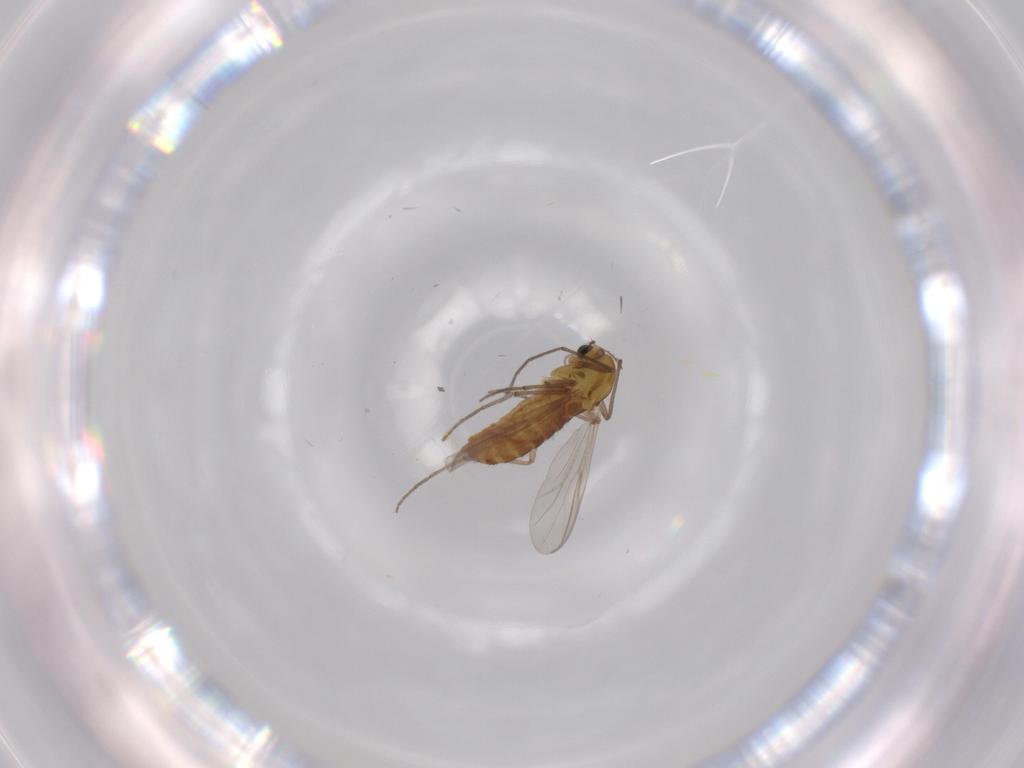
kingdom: Animalia
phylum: Arthropoda
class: Insecta
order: Diptera
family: Chironomidae
